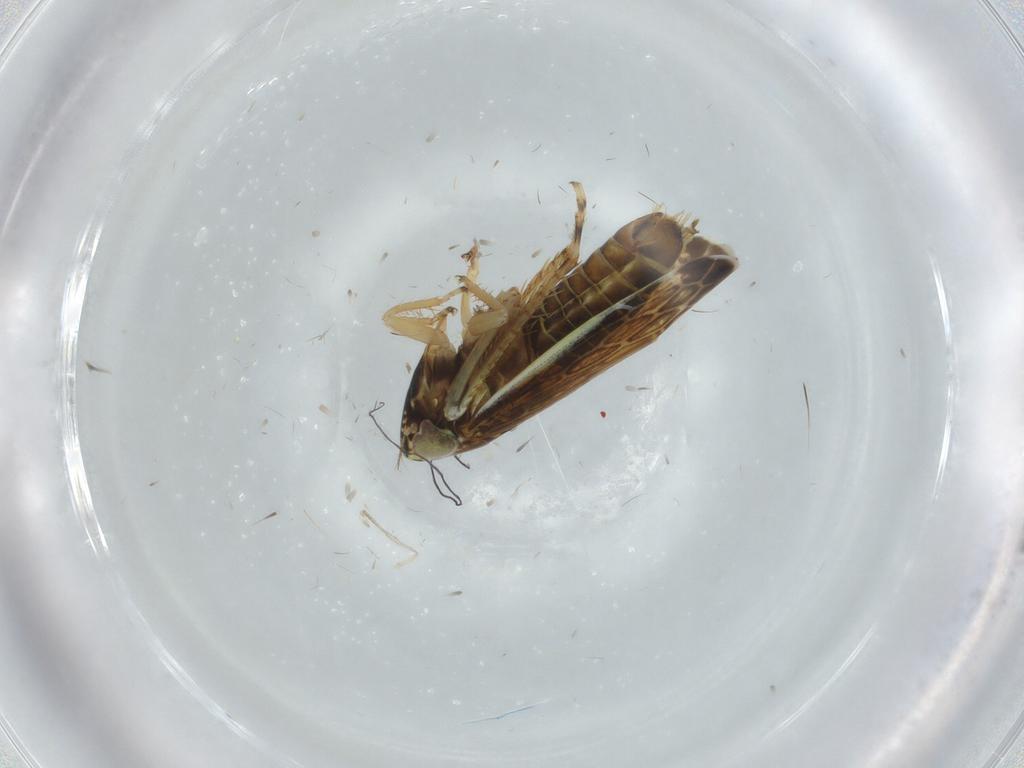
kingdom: Animalia
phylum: Arthropoda
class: Insecta
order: Hemiptera
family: Cicadellidae
